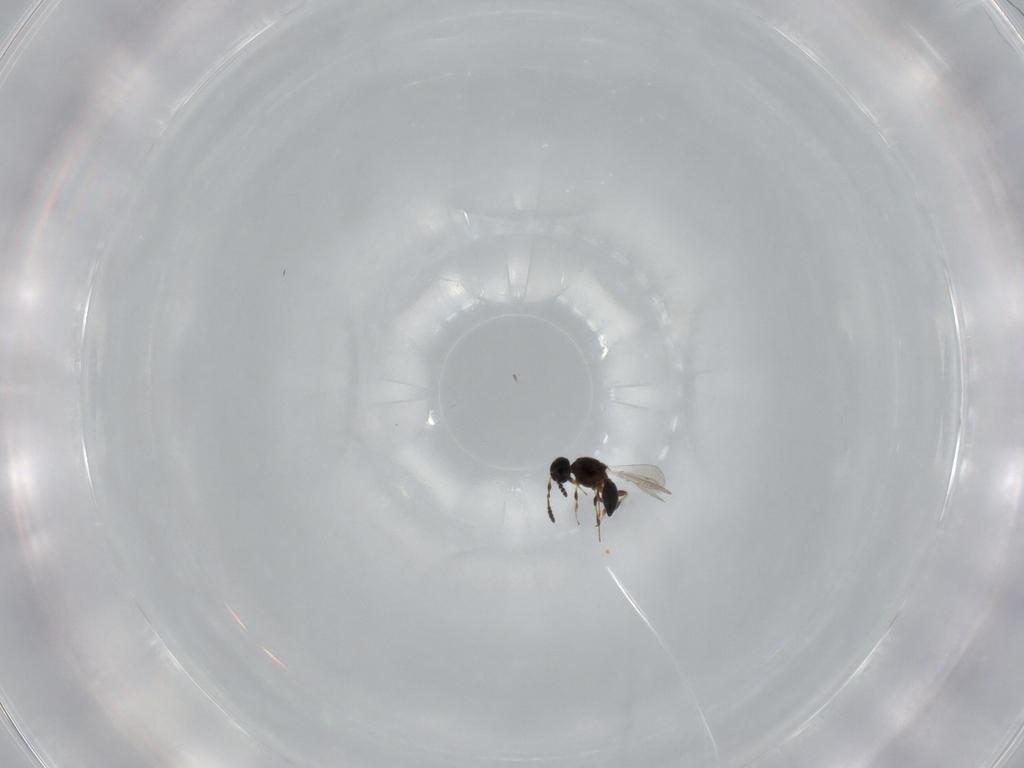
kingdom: Animalia
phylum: Arthropoda
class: Insecta
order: Hymenoptera
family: Platygastridae
